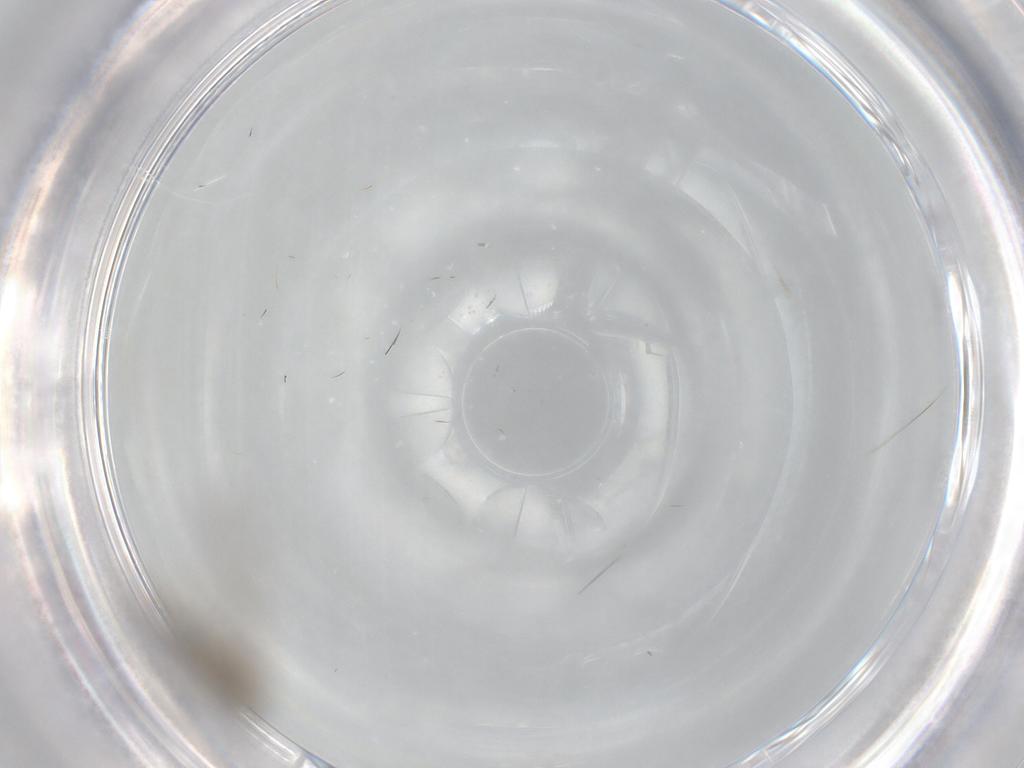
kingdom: Animalia
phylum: Arthropoda
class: Insecta
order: Diptera
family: Cecidomyiidae
